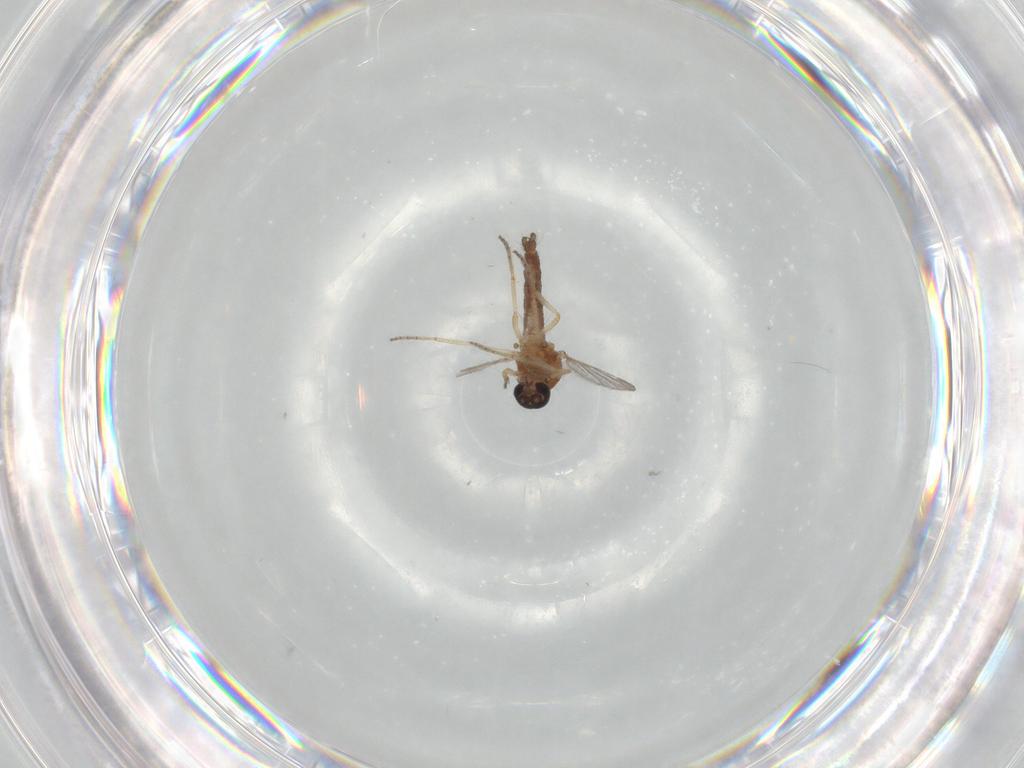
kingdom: Animalia
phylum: Arthropoda
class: Insecta
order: Diptera
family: Ceratopogonidae
